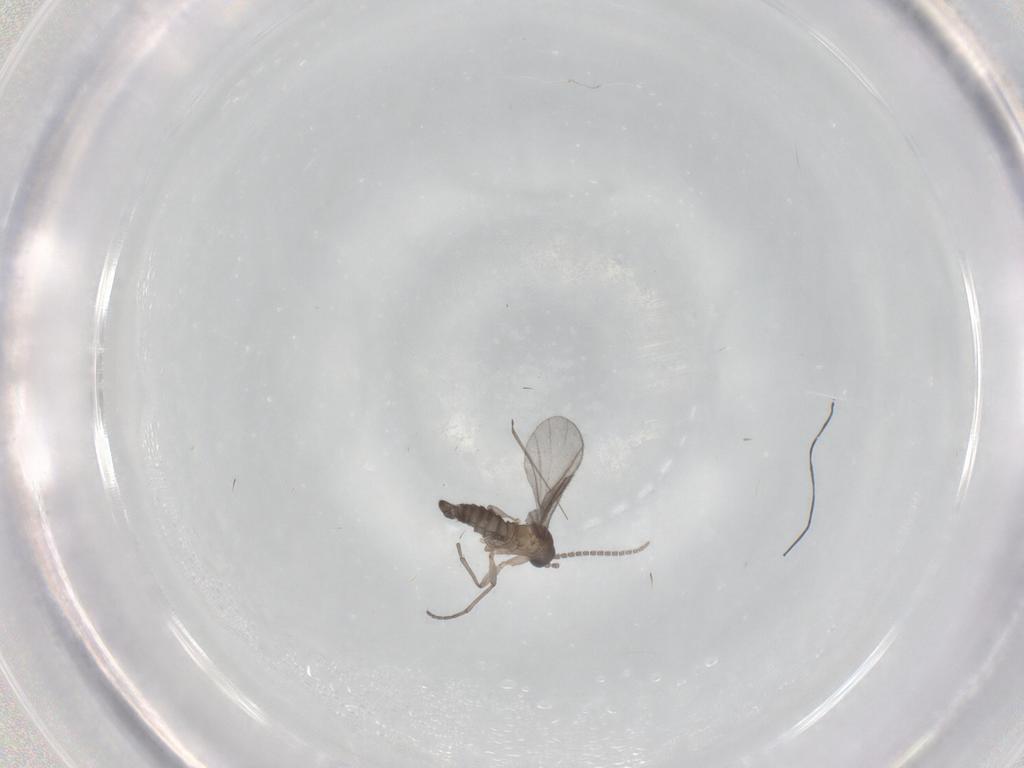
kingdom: Animalia
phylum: Arthropoda
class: Insecta
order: Diptera
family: Sciaridae
